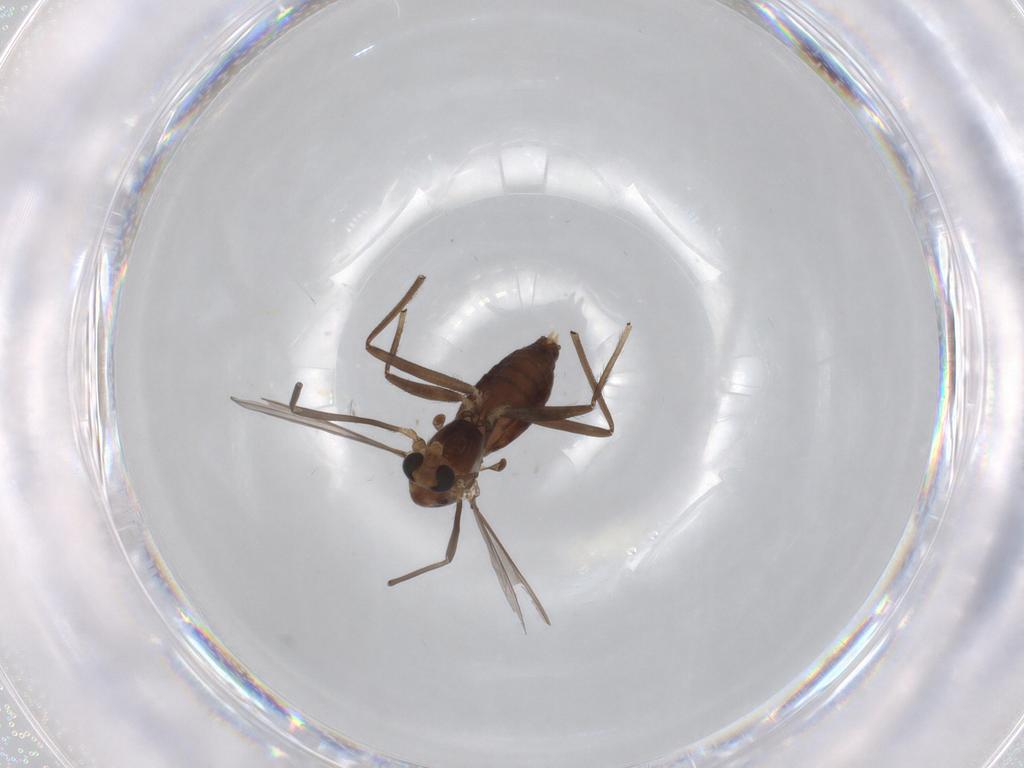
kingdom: Animalia
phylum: Arthropoda
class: Insecta
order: Diptera
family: Chironomidae
